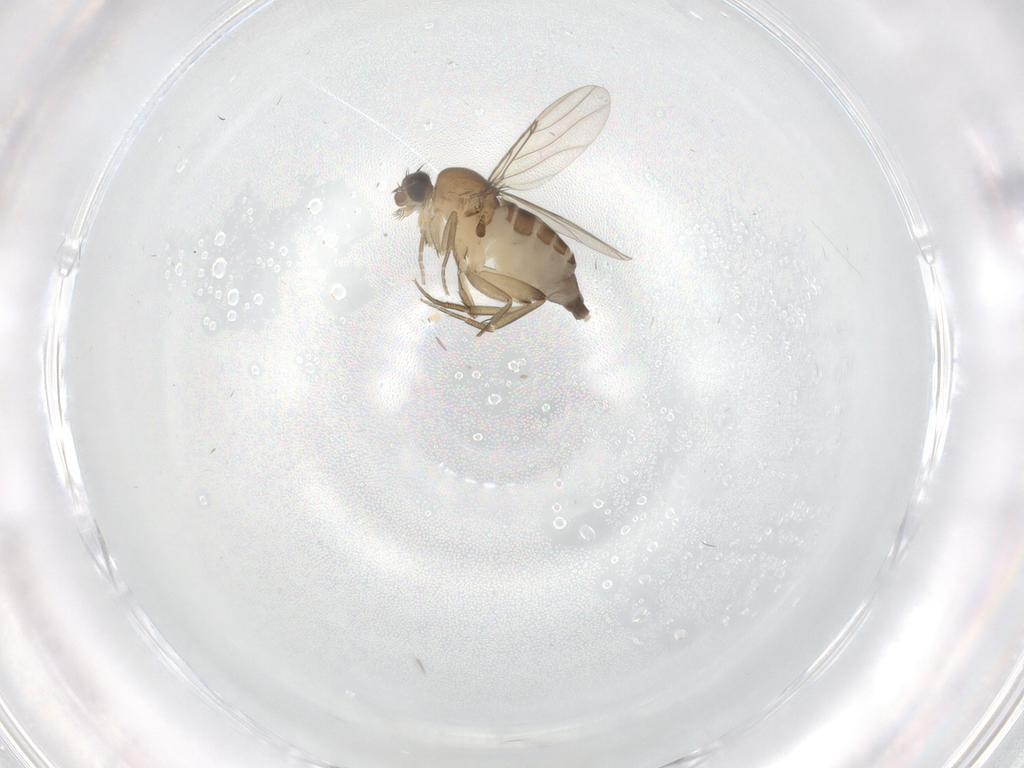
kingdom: Animalia
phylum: Arthropoda
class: Insecta
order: Diptera
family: Phoridae
